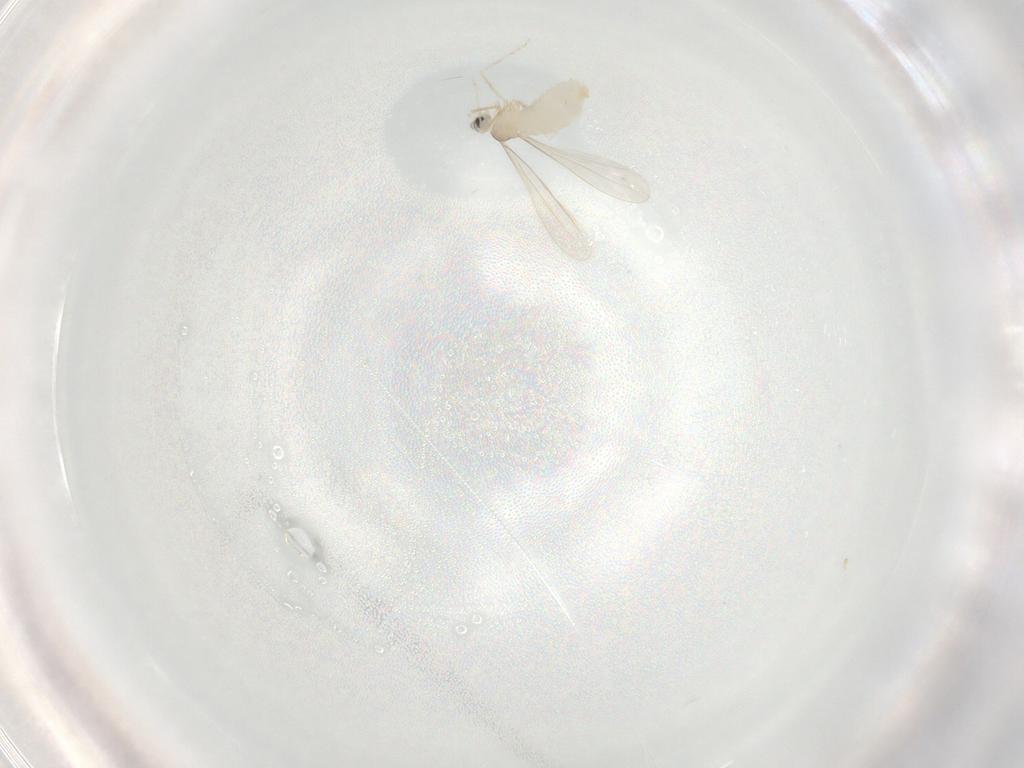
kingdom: Animalia
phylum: Arthropoda
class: Insecta
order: Diptera
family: Cecidomyiidae
